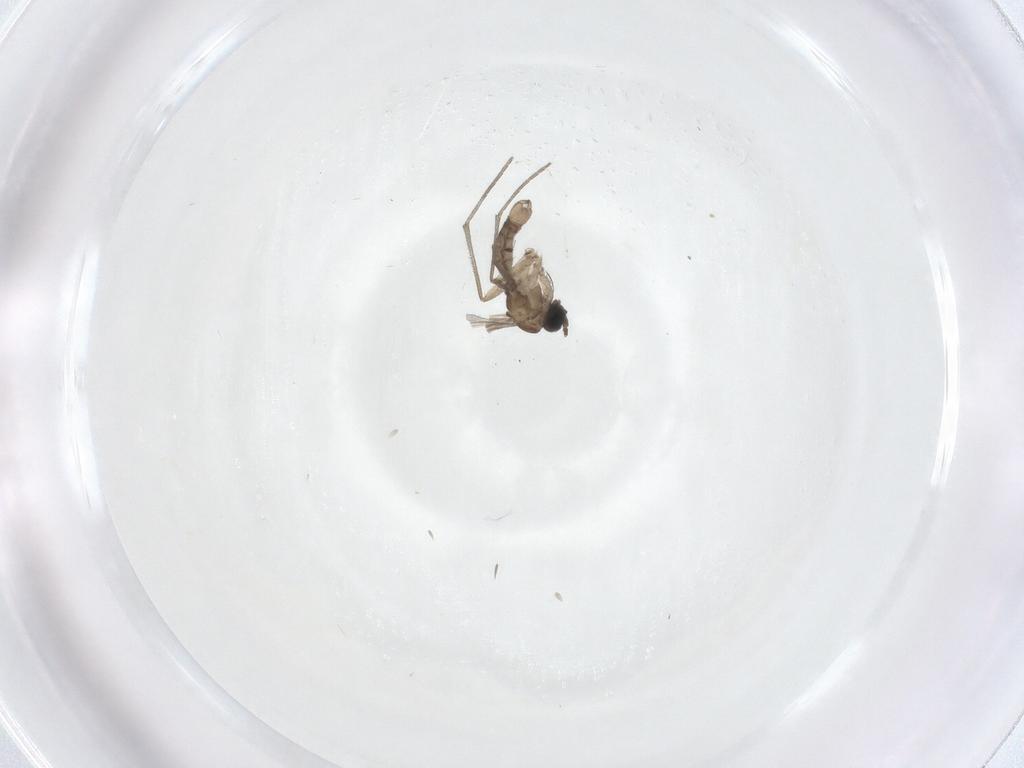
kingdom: Animalia
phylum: Arthropoda
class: Insecta
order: Diptera
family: Sciaridae
